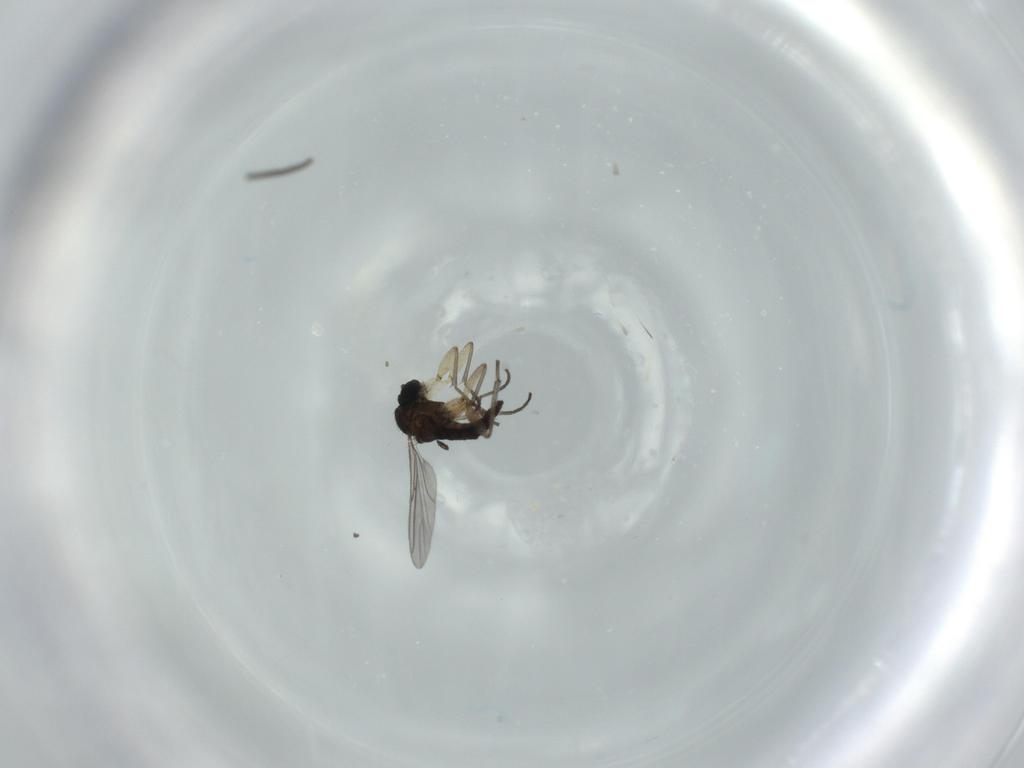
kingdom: Animalia
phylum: Arthropoda
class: Insecta
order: Diptera
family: Sciaridae
